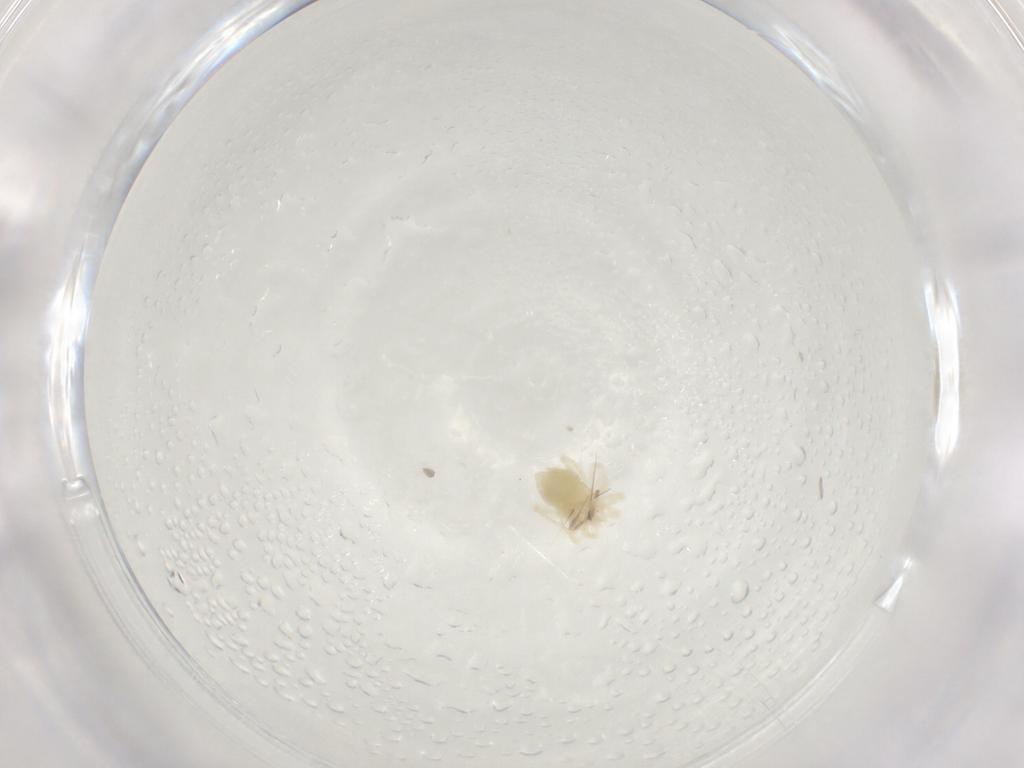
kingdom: Animalia
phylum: Arthropoda
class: Arachnida
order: Trombidiformes
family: Anystidae
